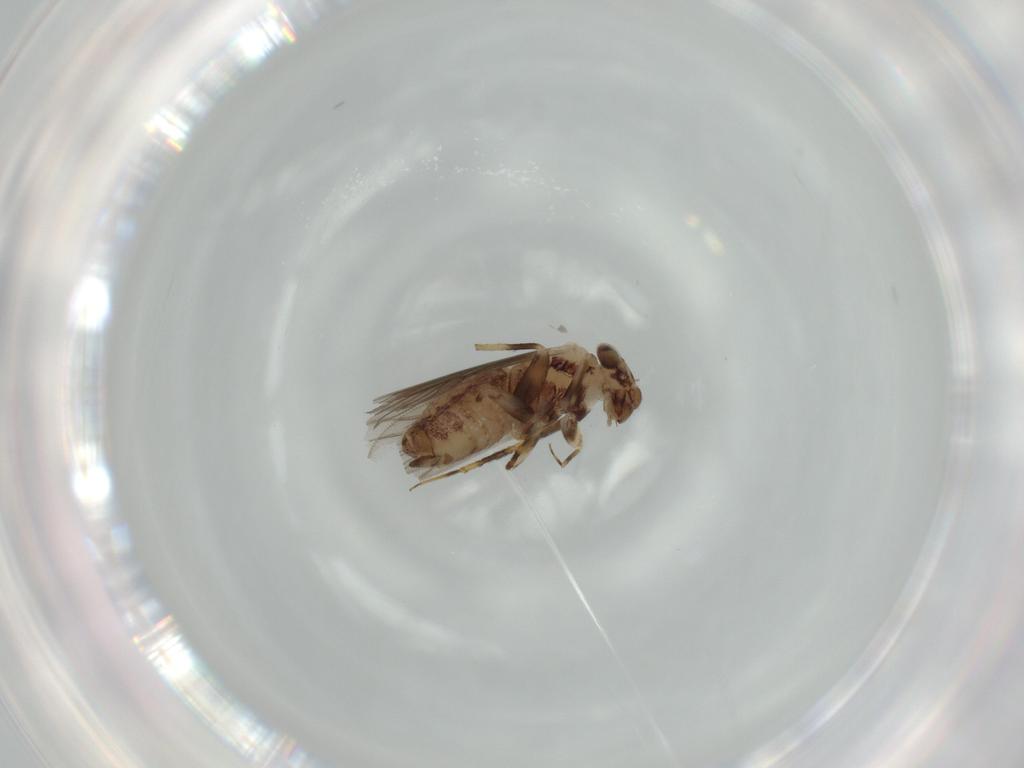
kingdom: Animalia
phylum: Arthropoda
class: Insecta
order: Psocodea
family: Lepidopsocidae
